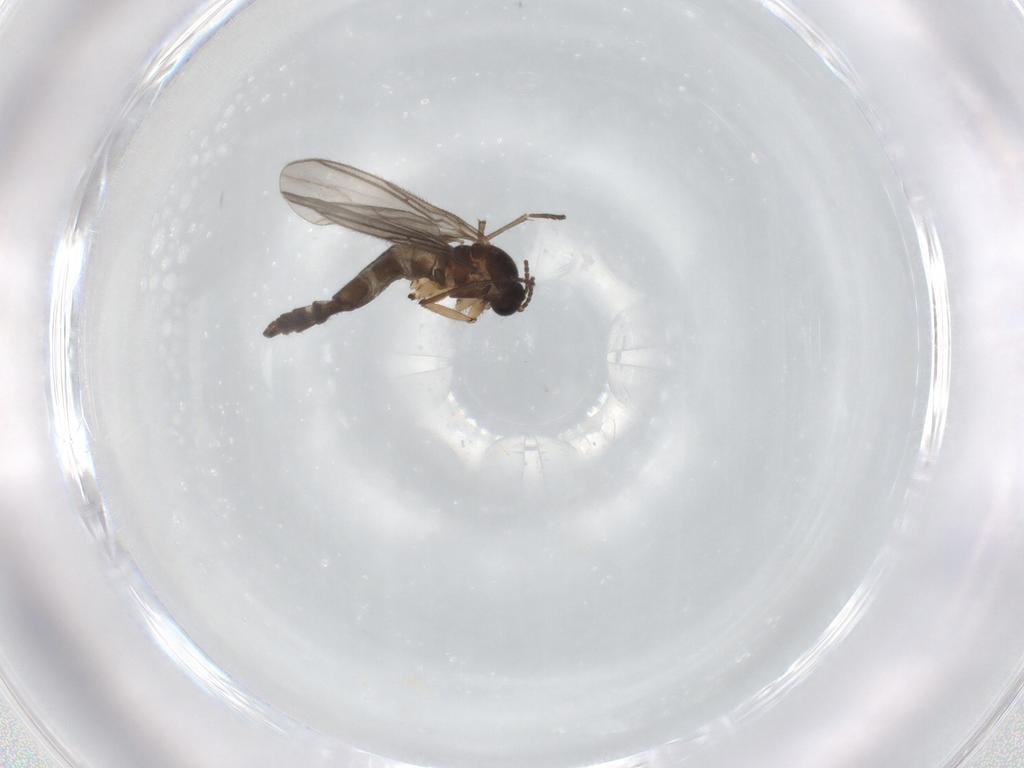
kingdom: Animalia
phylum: Arthropoda
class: Insecta
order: Diptera
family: Sciaridae
